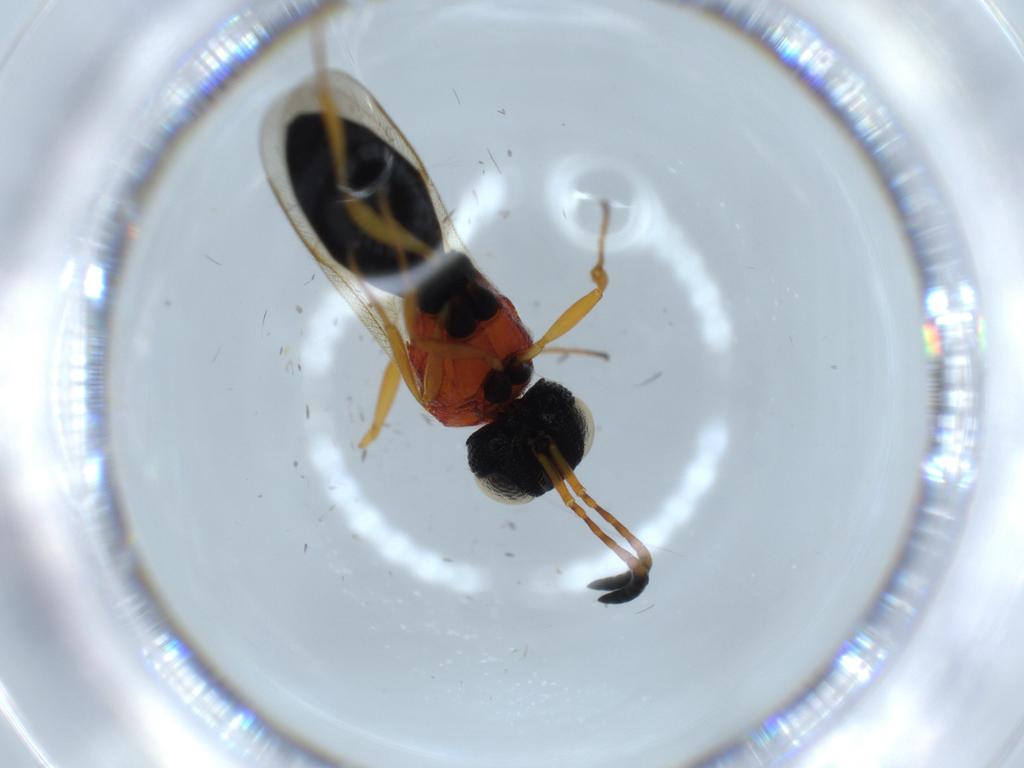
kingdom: Animalia
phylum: Arthropoda
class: Insecta
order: Hymenoptera
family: Scelionidae
